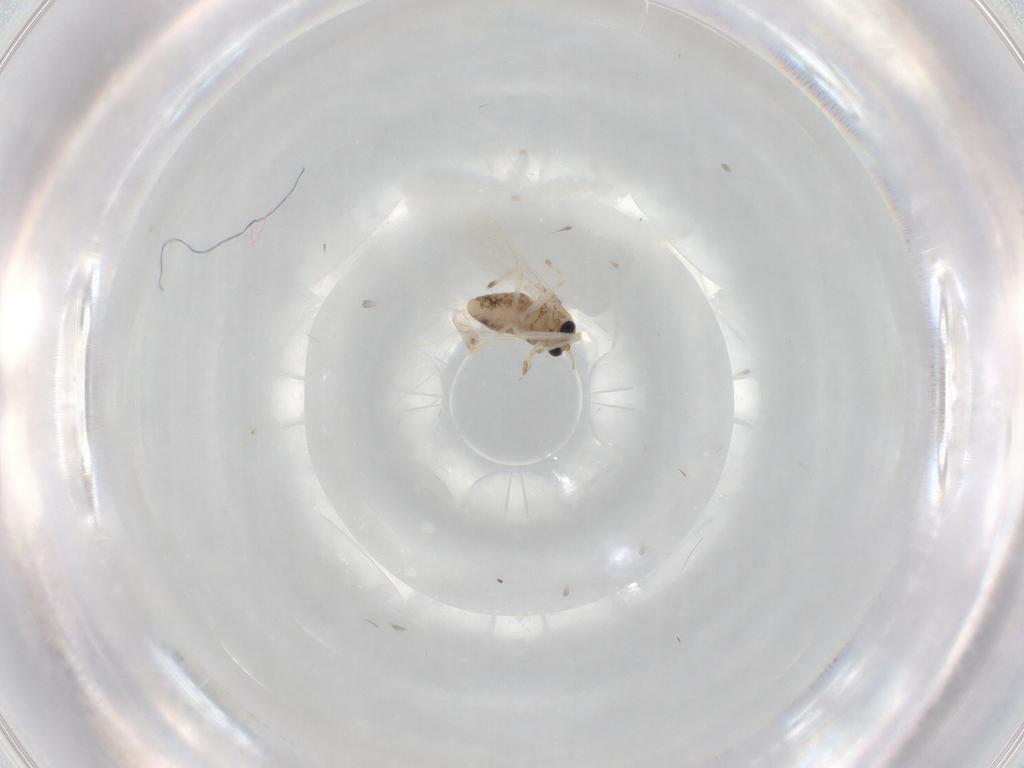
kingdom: Animalia
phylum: Arthropoda
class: Insecta
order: Diptera
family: Chironomidae
